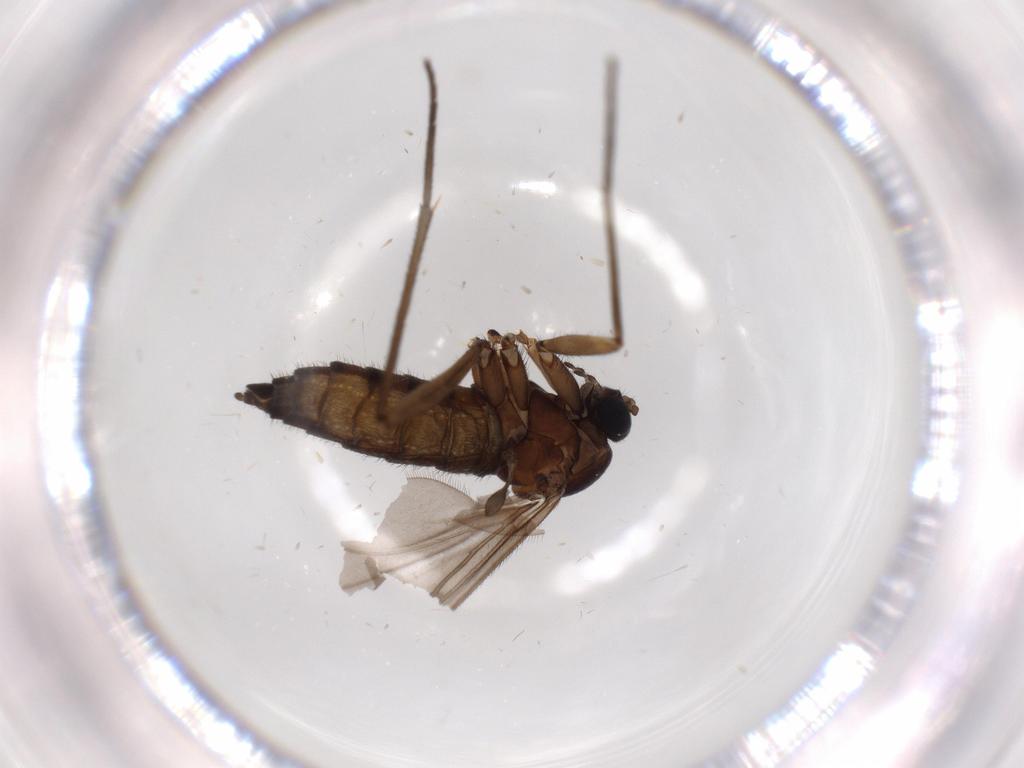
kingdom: Animalia
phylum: Arthropoda
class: Insecta
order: Diptera
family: Sciaridae
